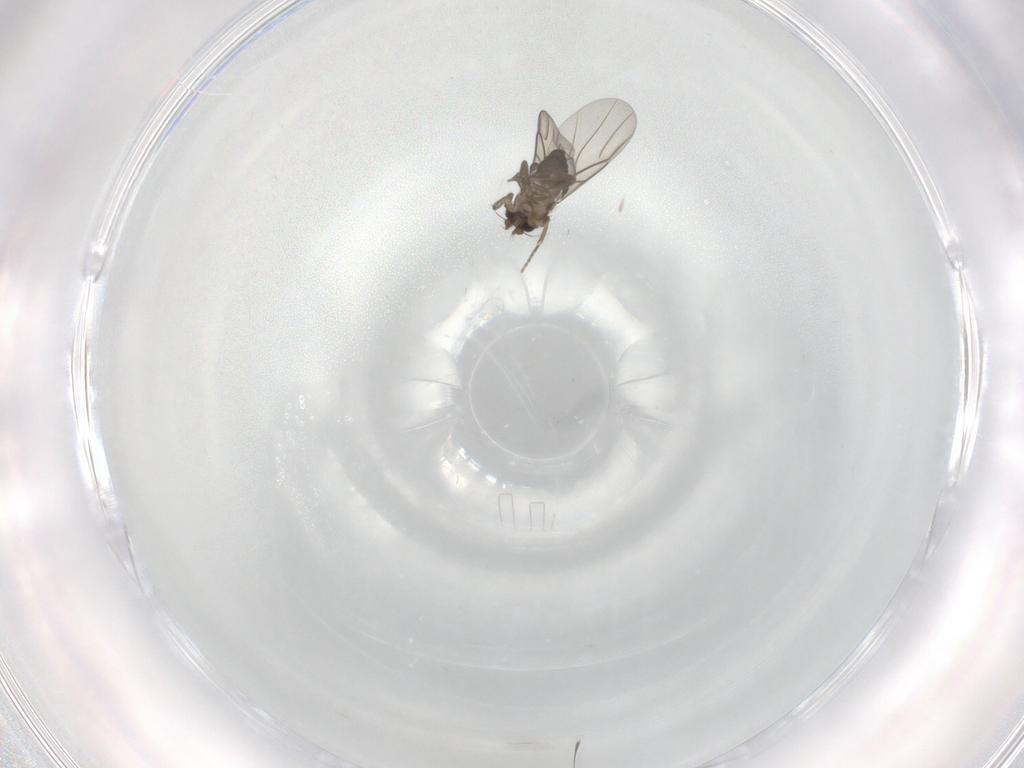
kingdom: Animalia
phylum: Arthropoda
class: Insecta
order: Diptera
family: Phoridae
